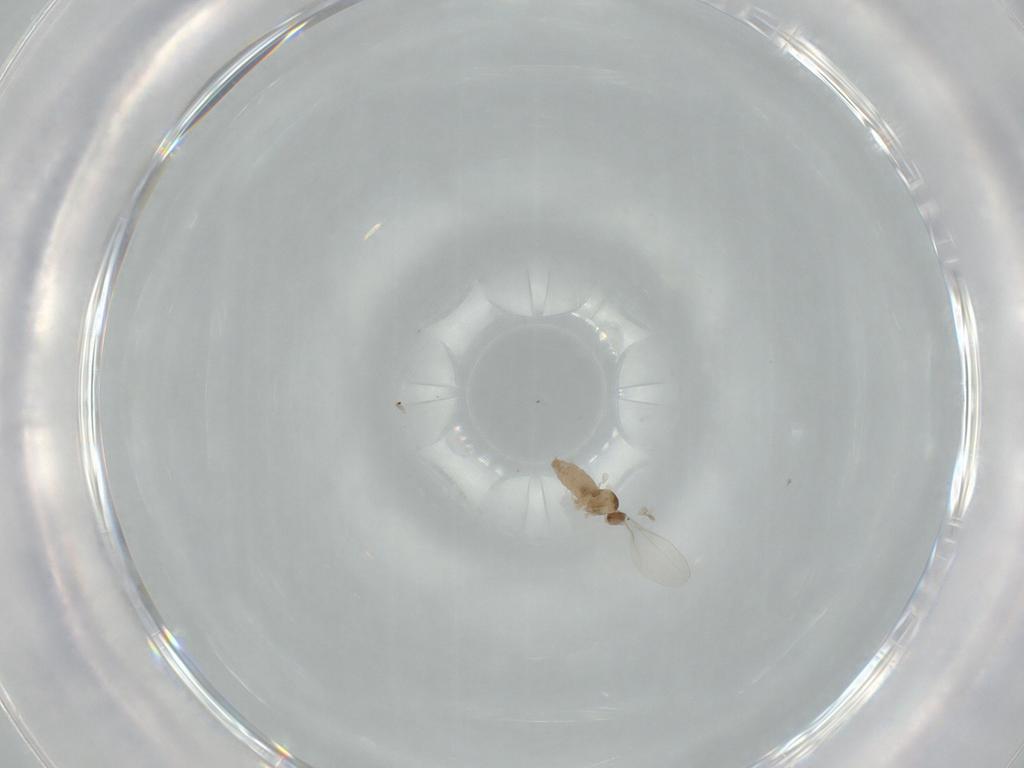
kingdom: Animalia
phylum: Arthropoda
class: Insecta
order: Diptera
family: Cecidomyiidae
